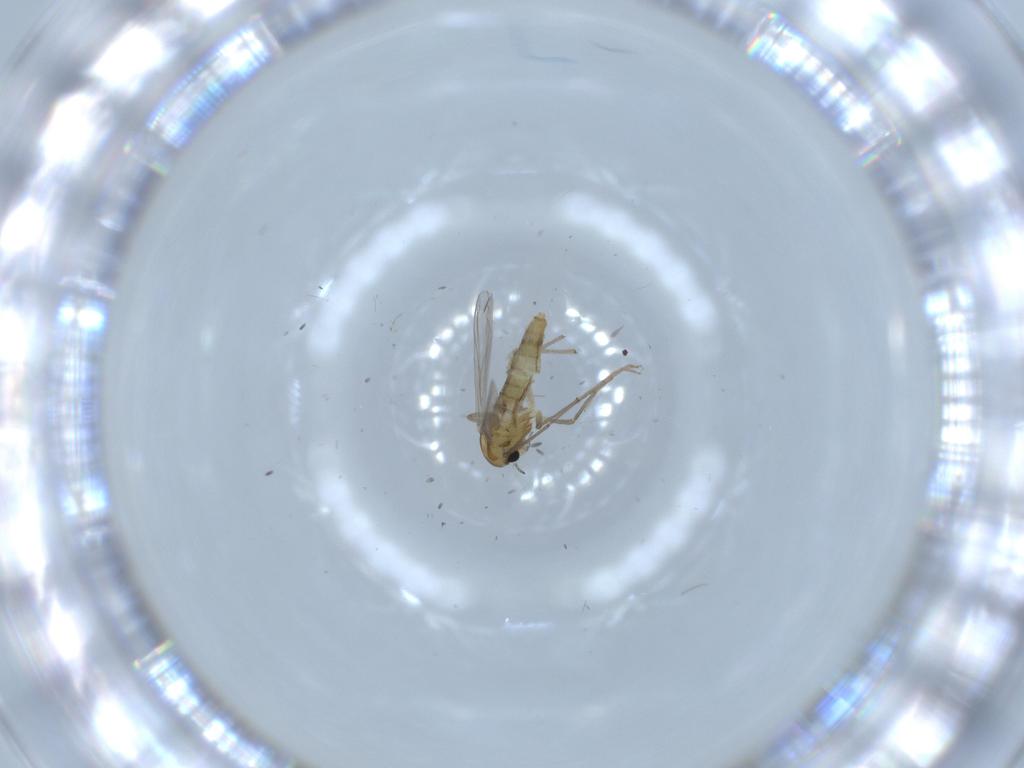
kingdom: Animalia
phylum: Arthropoda
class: Insecta
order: Diptera
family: Chironomidae
